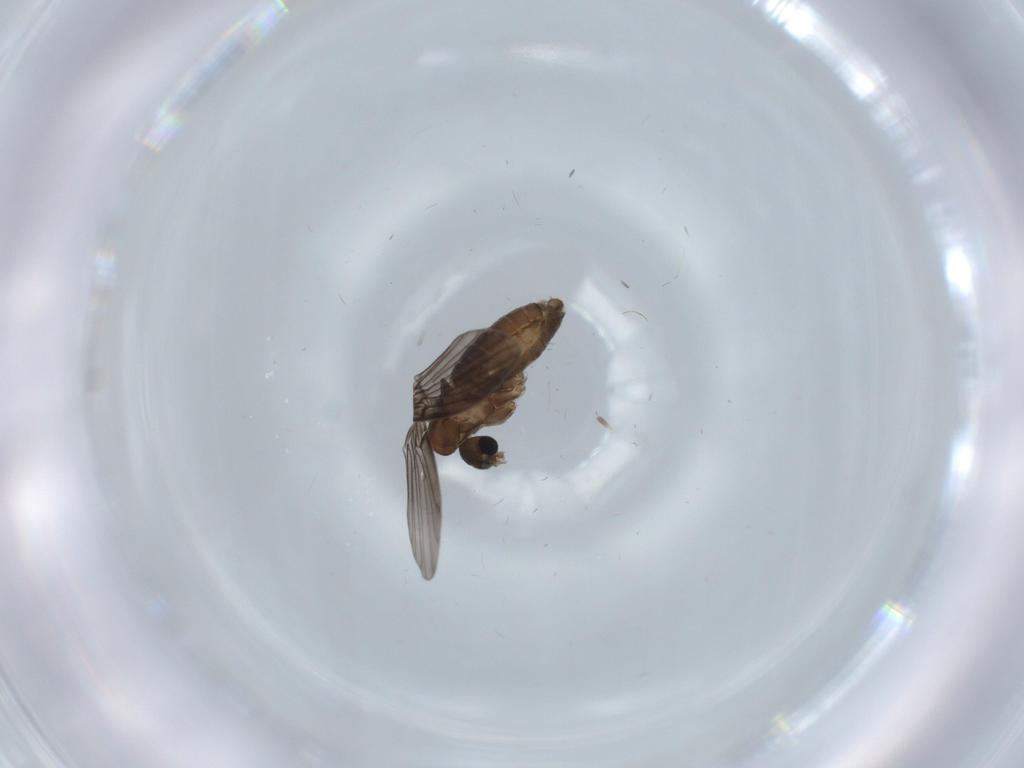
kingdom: Animalia
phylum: Arthropoda
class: Insecta
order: Diptera
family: Psychodidae
